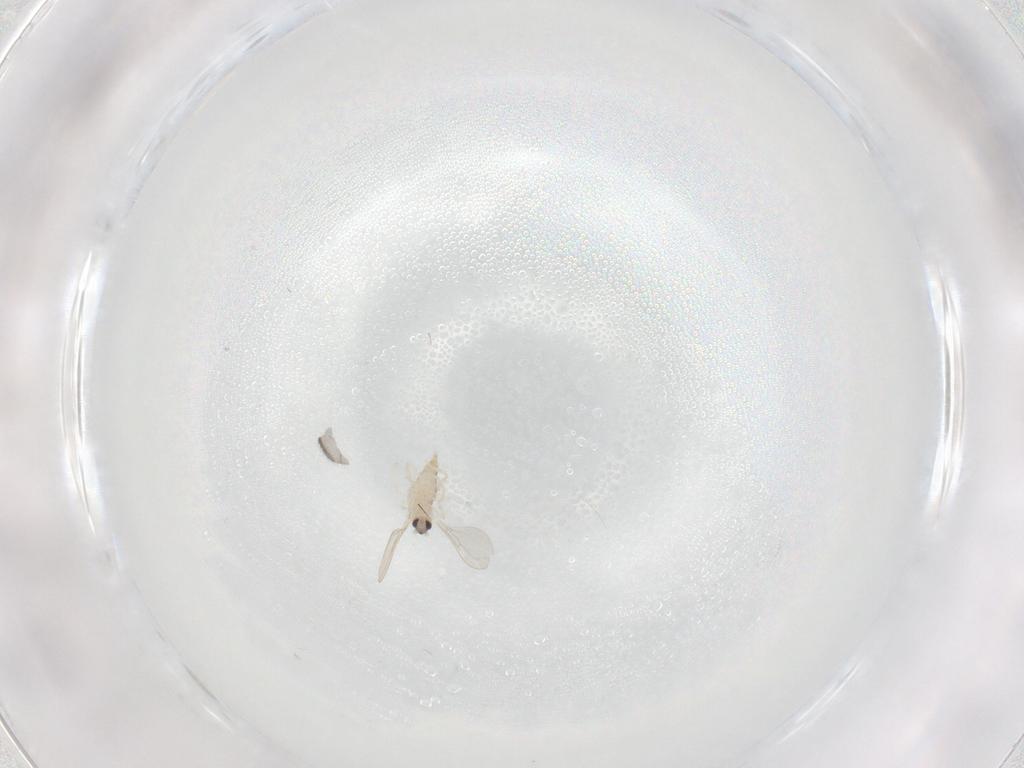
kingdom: Animalia
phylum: Arthropoda
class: Insecta
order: Diptera
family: Cecidomyiidae
